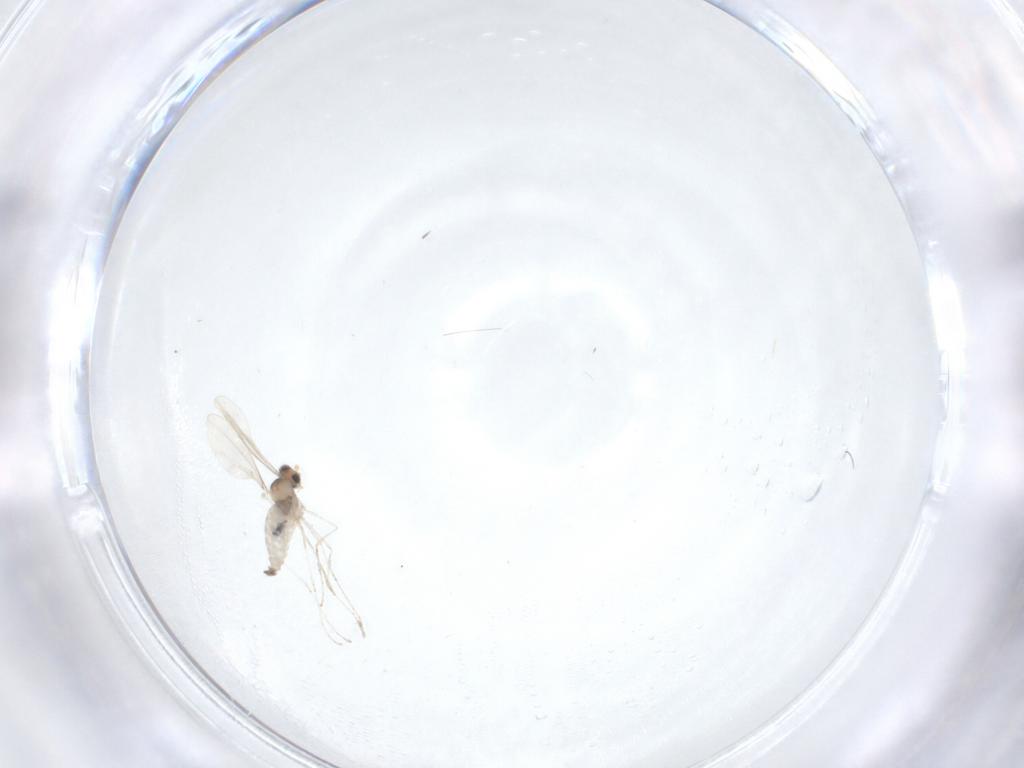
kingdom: Animalia
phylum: Arthropoda
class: Insecta
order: Diptera
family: Cecidomyiidae
